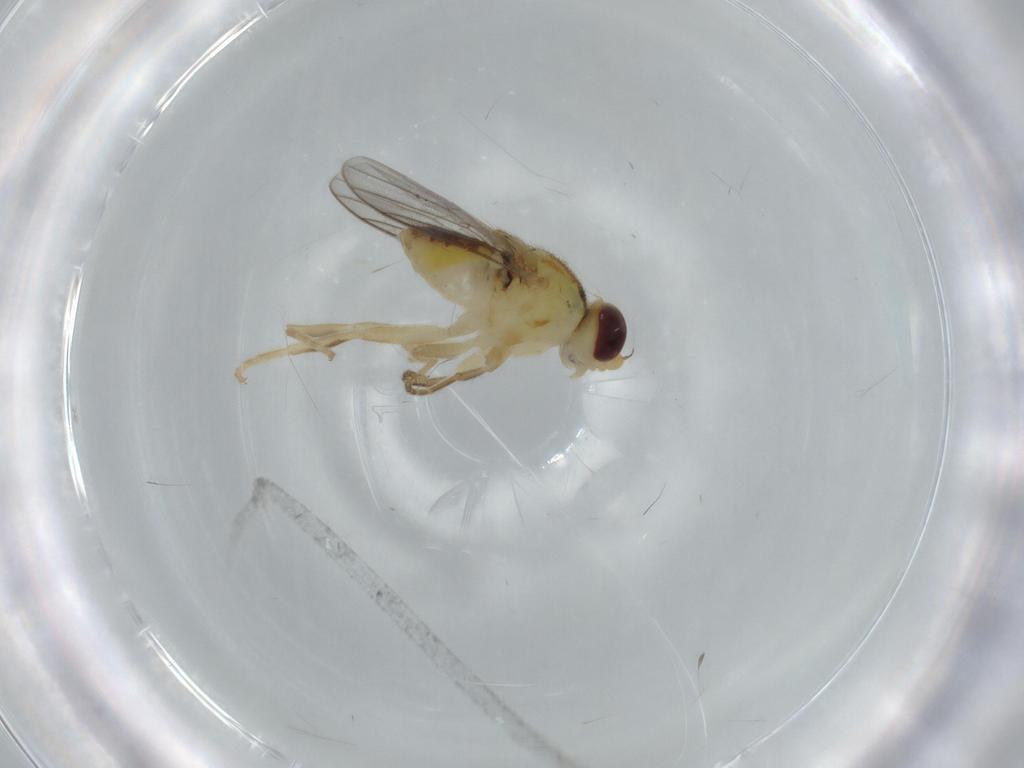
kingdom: Animalia
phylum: Arthropoda
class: Insecta
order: Diptera
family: Chloropidae
